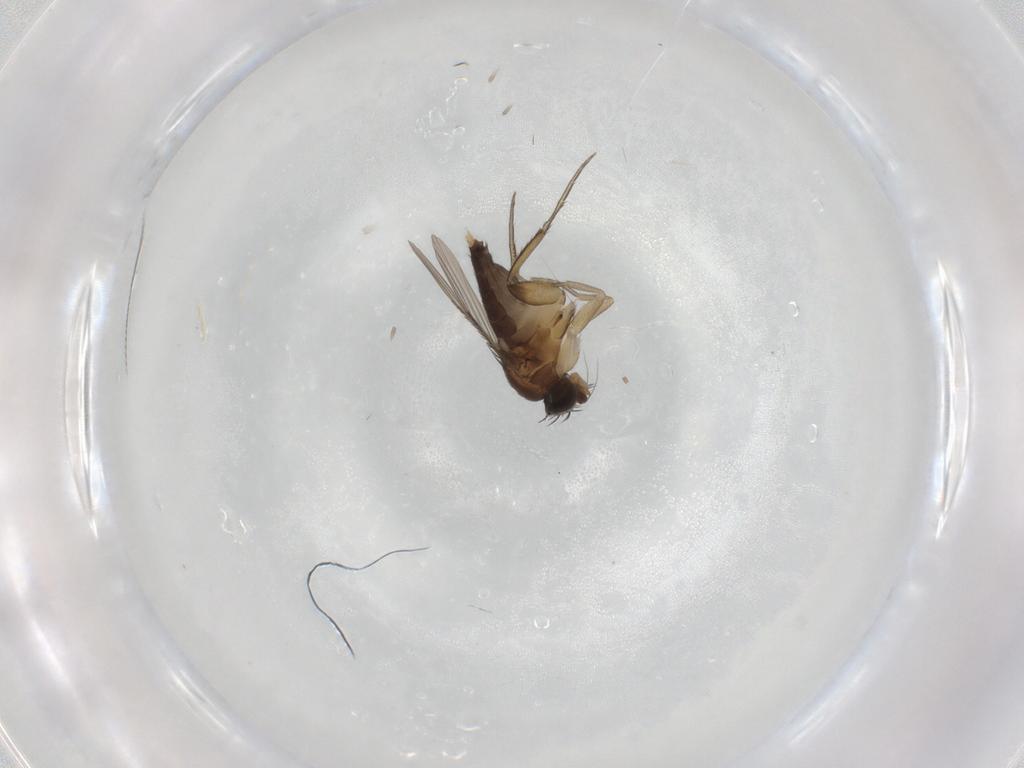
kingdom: Animalia
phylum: Arthropoda
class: Insecta
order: Diptera
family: Phoridae
